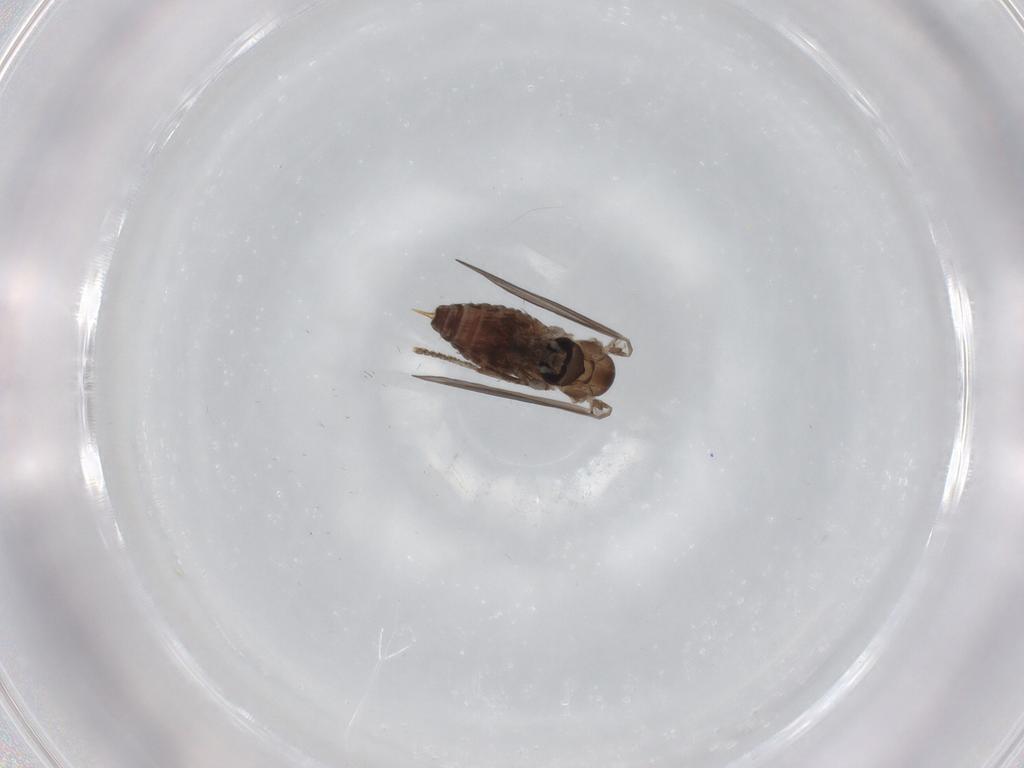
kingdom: Animalia
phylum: Arthropoda
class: Insecta
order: Diptera
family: Psychodidae
